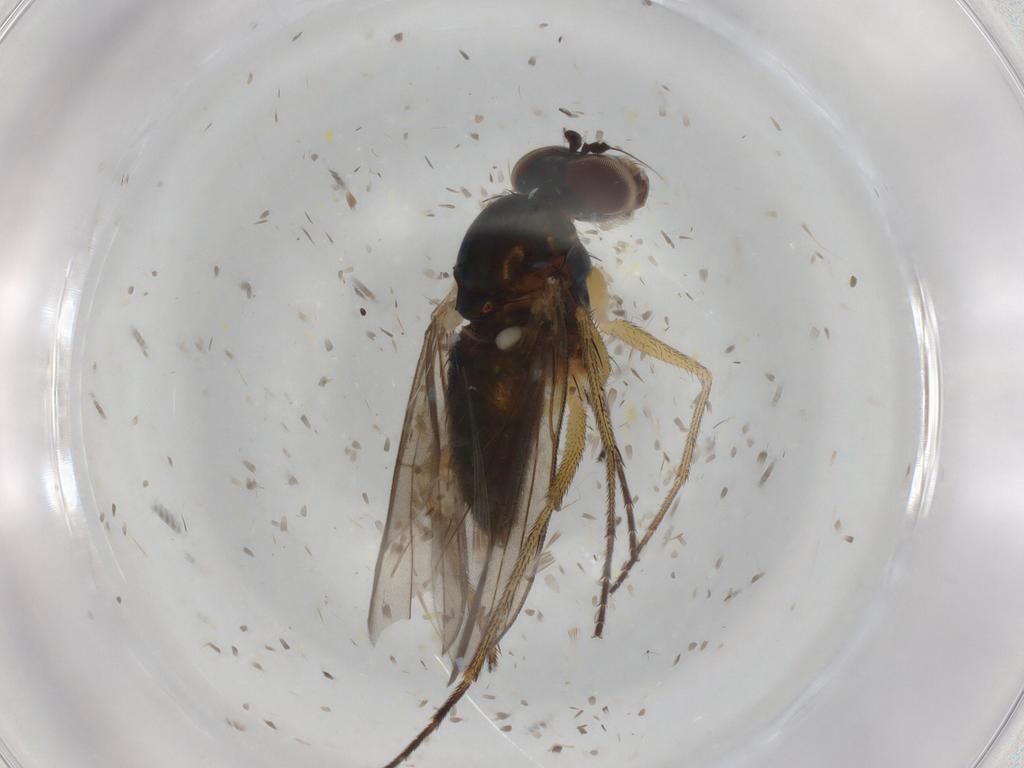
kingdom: Animalia
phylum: Arthropoda
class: Insecta
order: Diptera
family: Dolichopodidae
